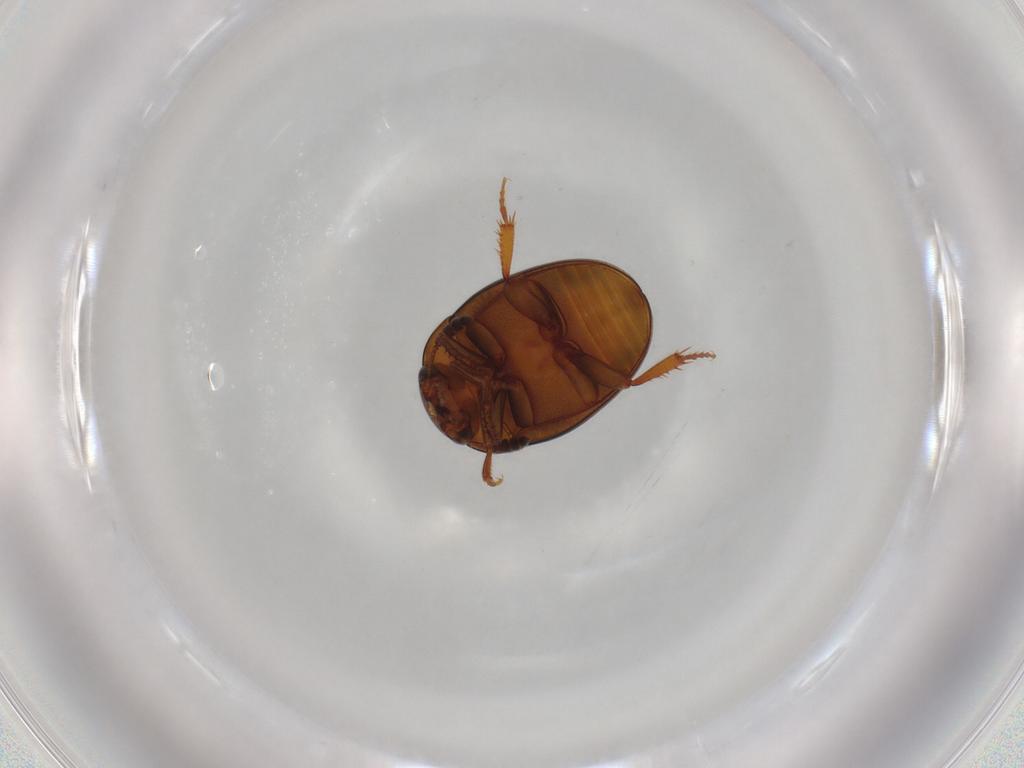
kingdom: Animalia
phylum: Arthropoda
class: Insecta
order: Coleoptera
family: Leiodidae
